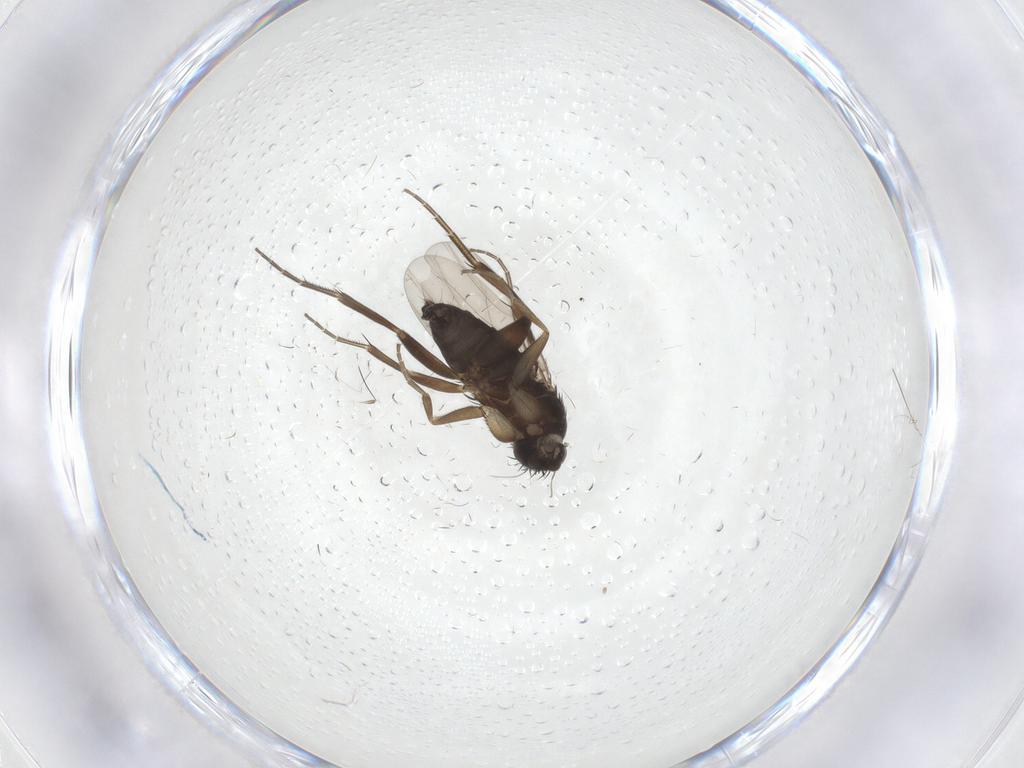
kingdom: Animalia
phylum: Arthropoda
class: Insecta
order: Diptera
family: Phoridae
